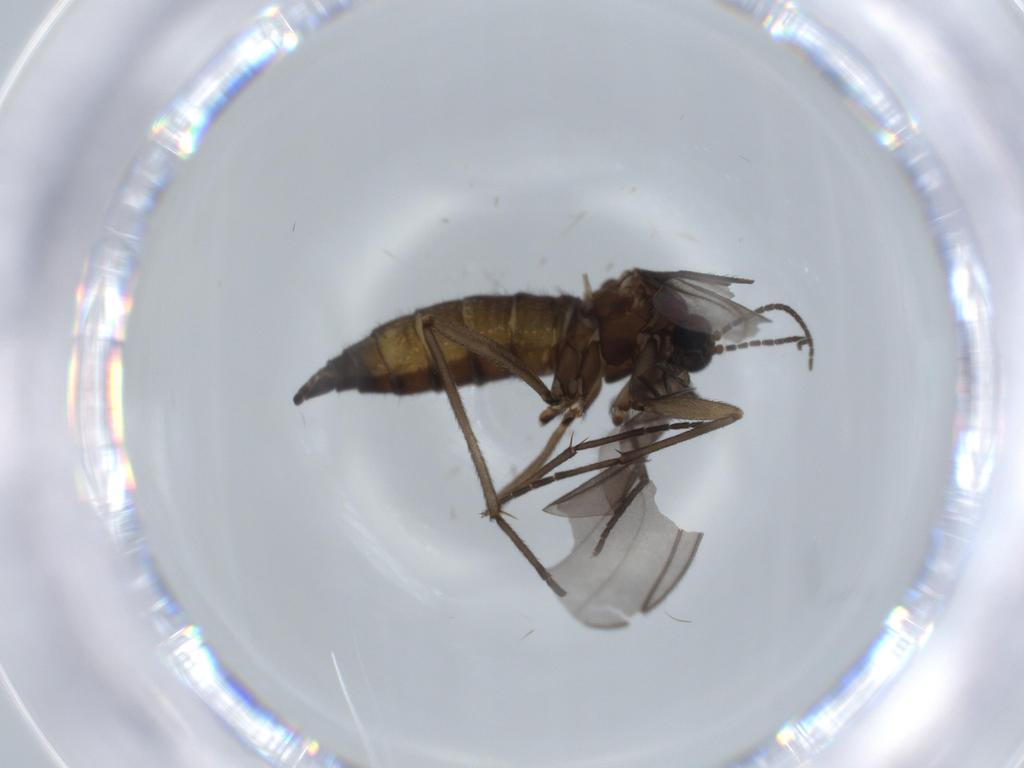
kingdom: Animalia
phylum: Arthropoda
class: Insecta
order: Diptera
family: Sciaridae
